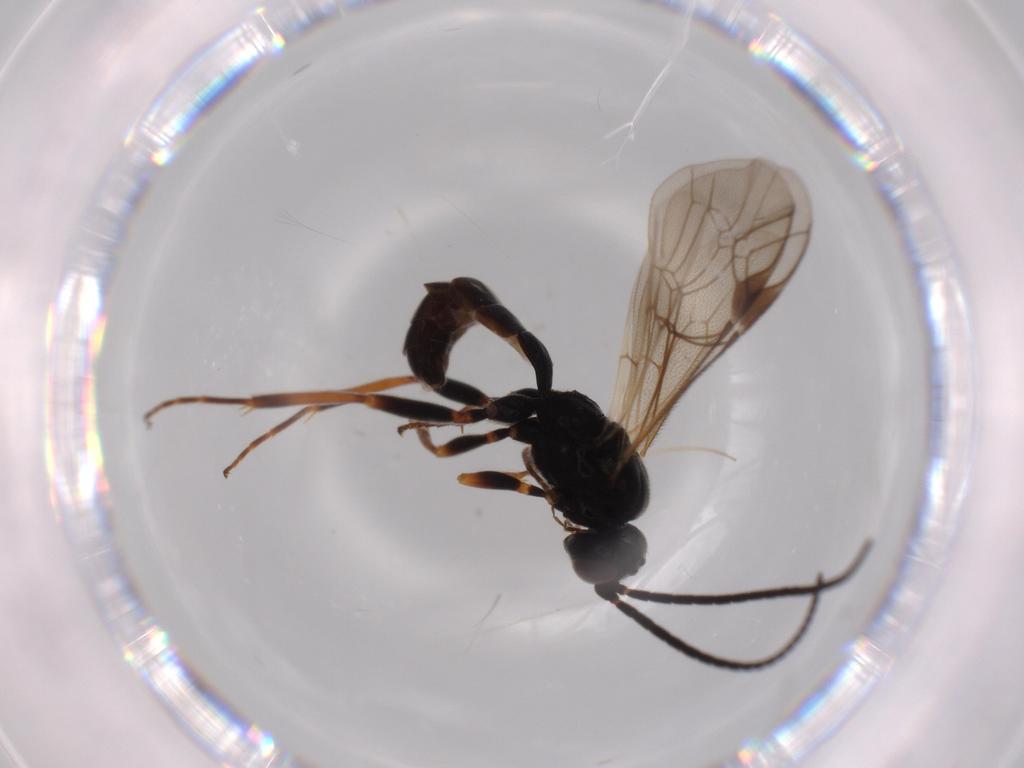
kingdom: Animalia
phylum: Arthropoda
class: Insecta
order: Hymenoptera
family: Ichneumonidae
